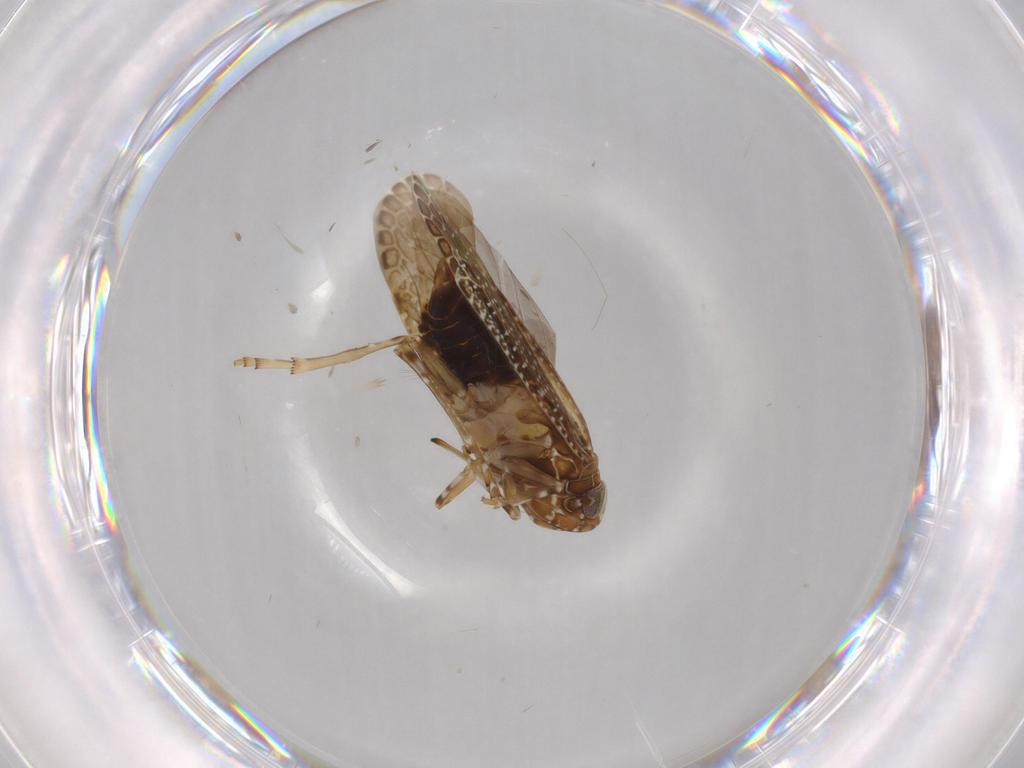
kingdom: Animalia
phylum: Arthropoda
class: Insecta
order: Hemiptera
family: Achilidae
